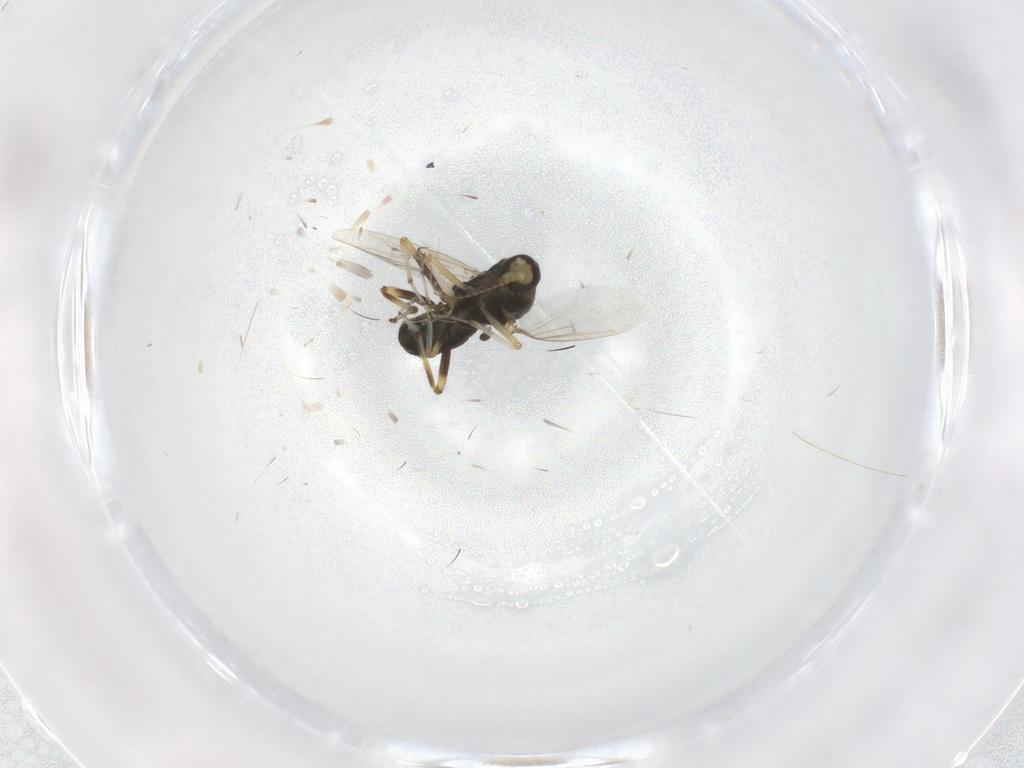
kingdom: Animalia
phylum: Arthropoda
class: Insecta
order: Diptera
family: Ceratopogonidae
